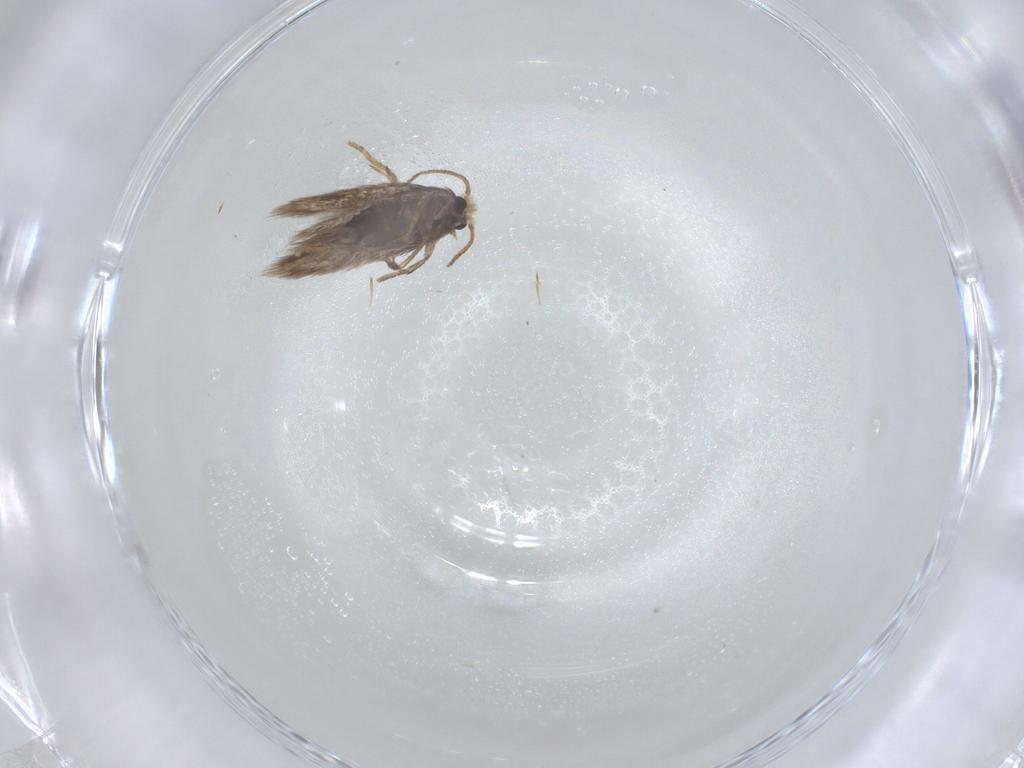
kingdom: Animalia
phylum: Arthropoda
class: Insecta
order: Lepidoptera
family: Nepticulidae
